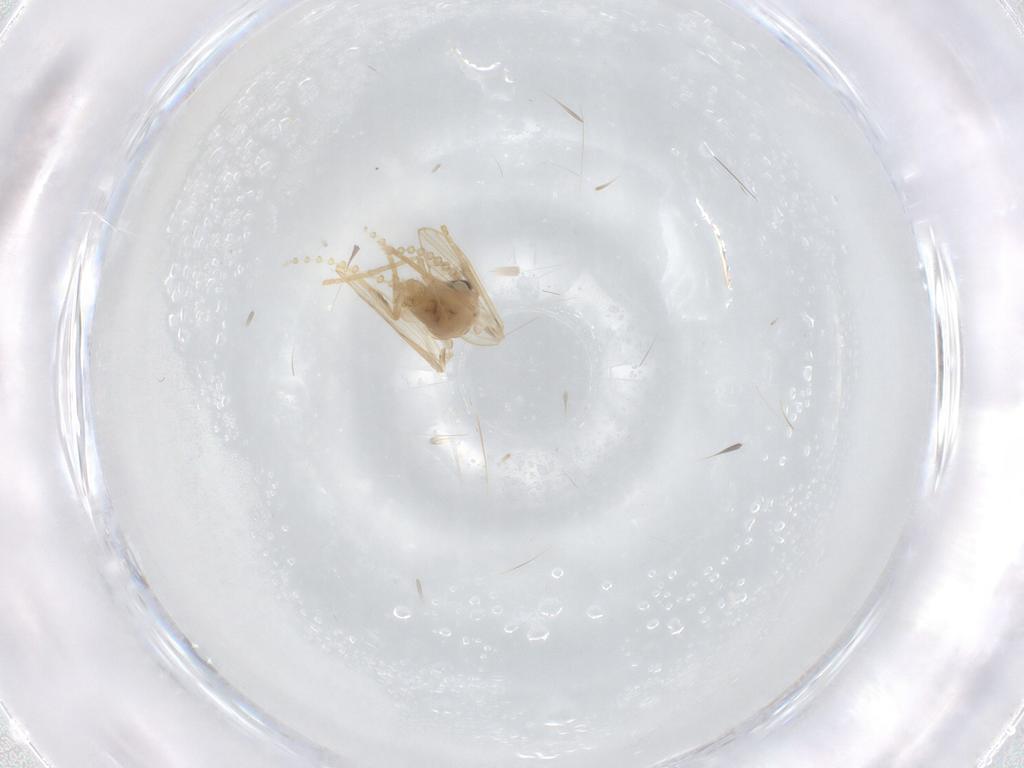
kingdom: Animalia
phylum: Arthropoda
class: Insecta
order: Diptera
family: Psychodidae
